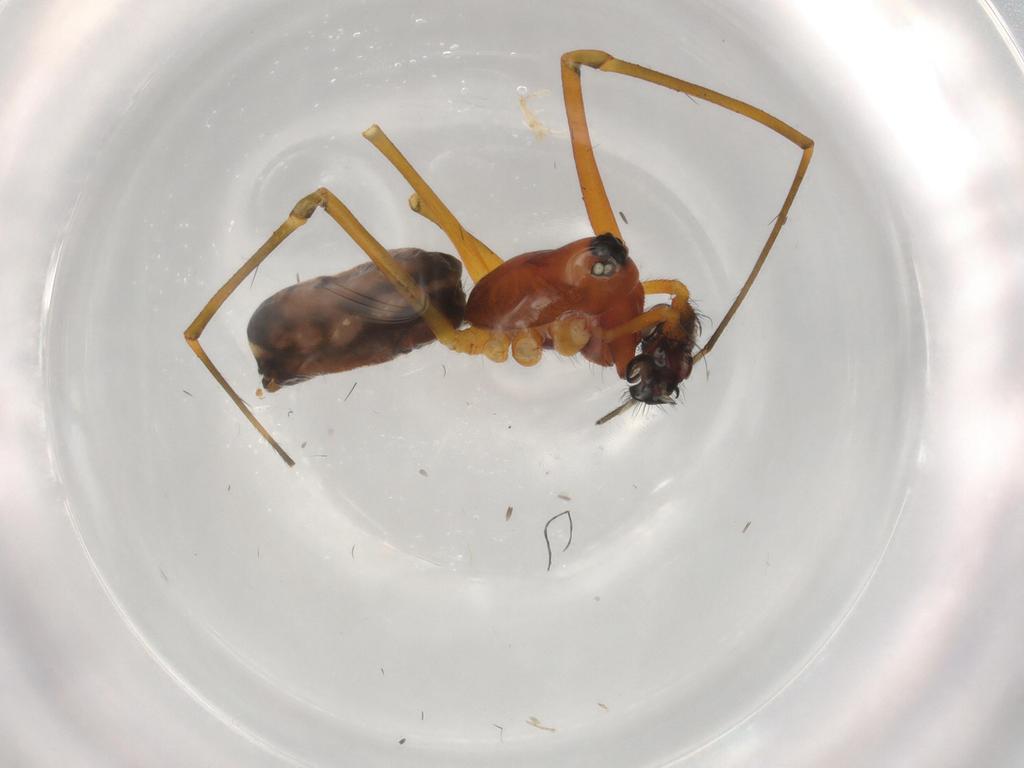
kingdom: Animalia
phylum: Arthropoda
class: Arachnida
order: Araneae
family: Linyphiidae
